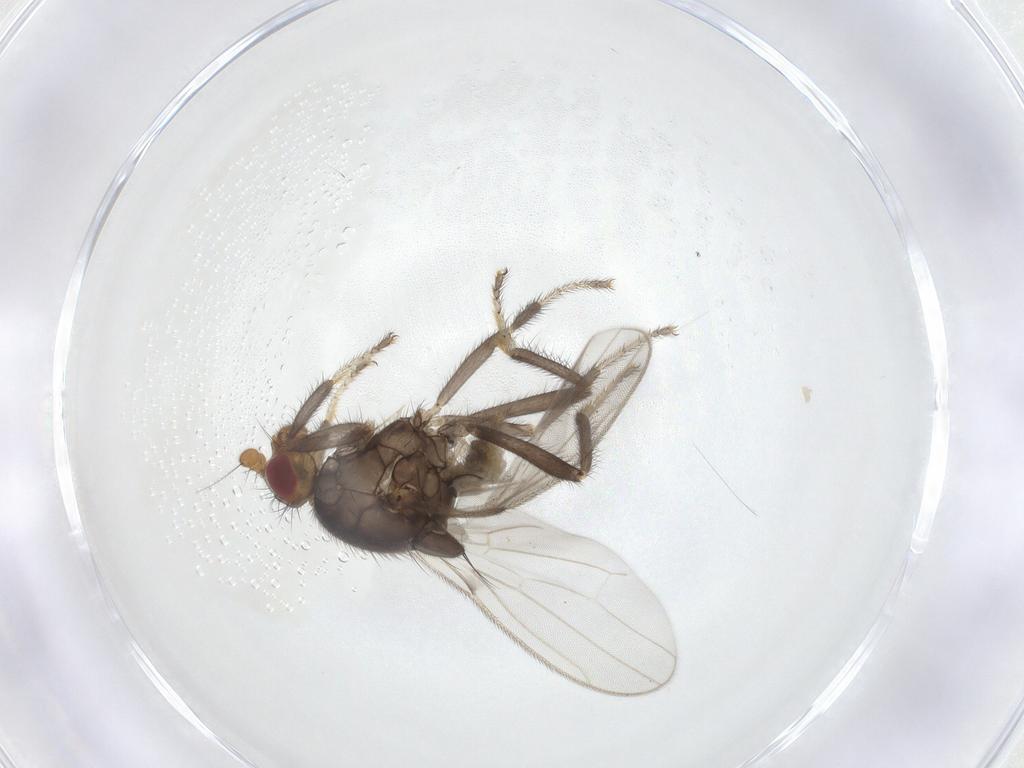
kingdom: Animalia
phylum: Arthropoda
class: Insecta
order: Diptera
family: Sphaeroceridae
